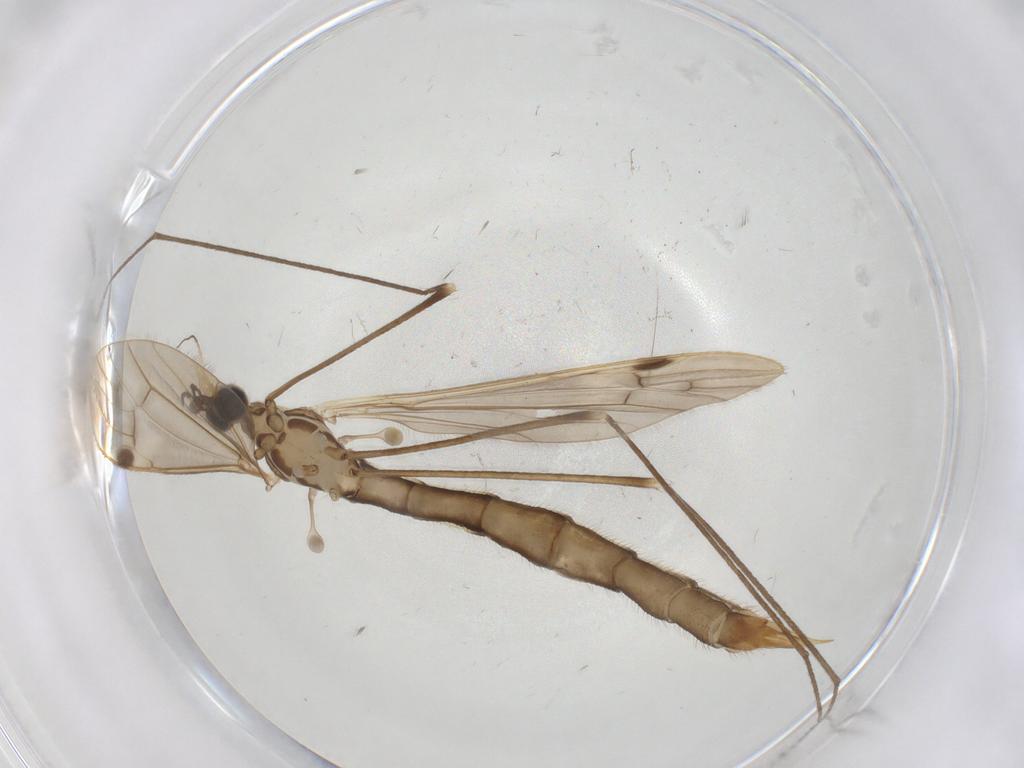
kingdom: Animalia
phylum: Arthropoda
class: Insecta
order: Diptera
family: Limoniidae
